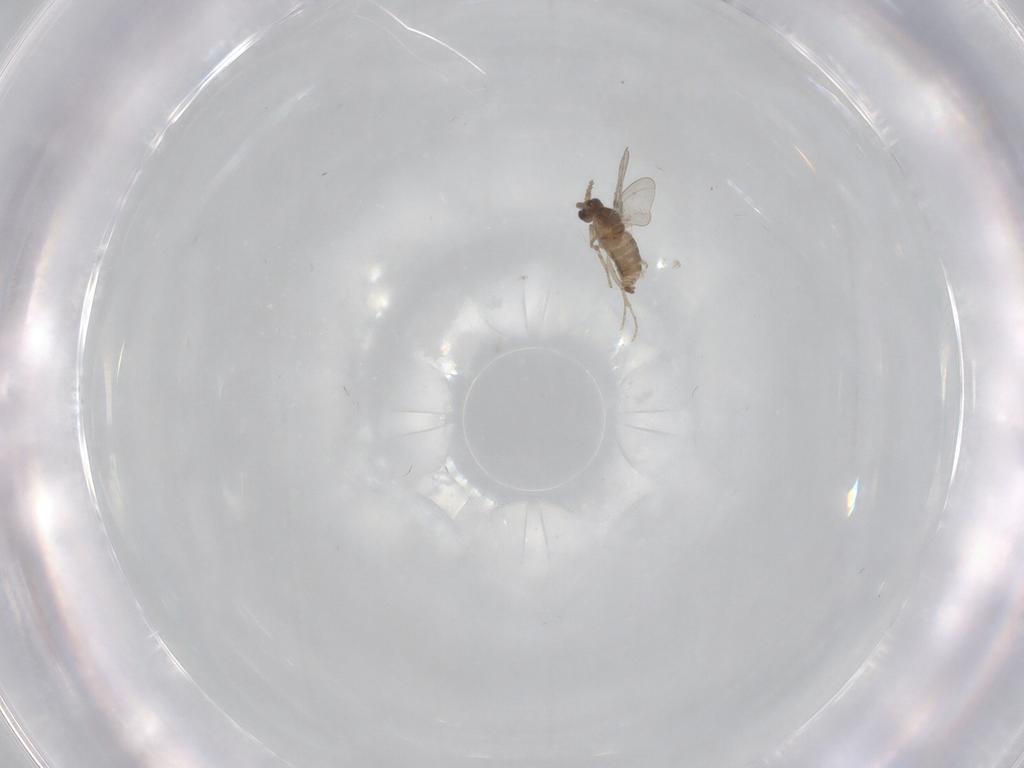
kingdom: Animalia
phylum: Arthropoda
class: Insecta
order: Diptera
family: Cecidomyiidae
